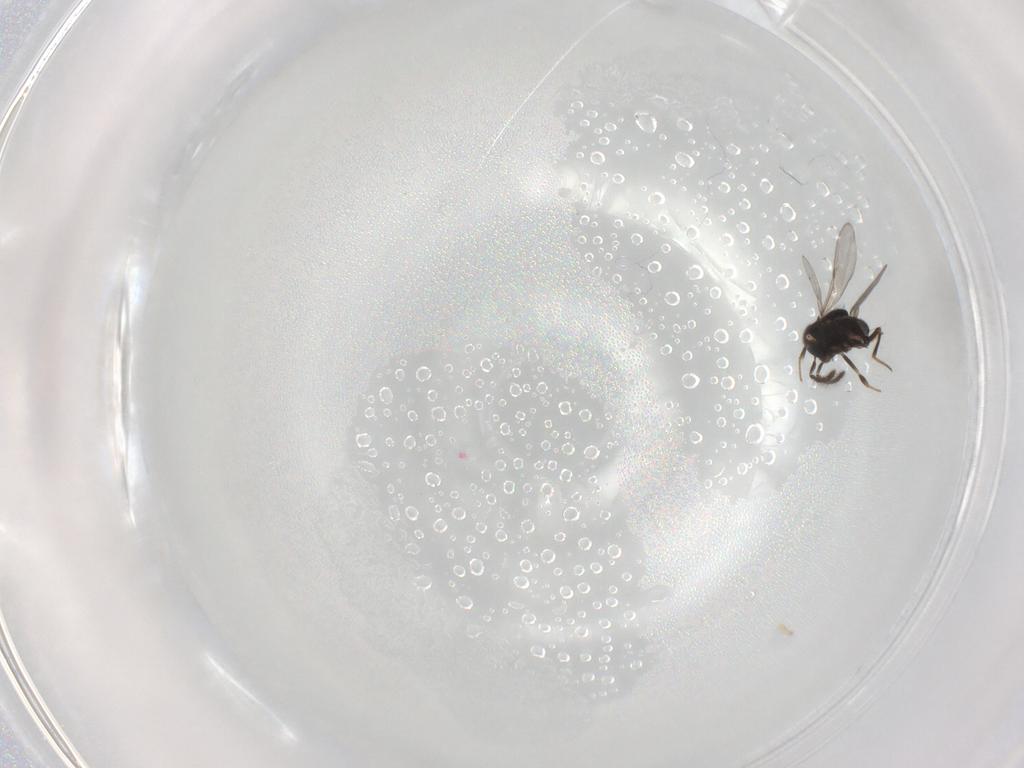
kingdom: Animalia
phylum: Arthropoda
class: Insecta
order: Hymenoptera
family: Encyrtidae
